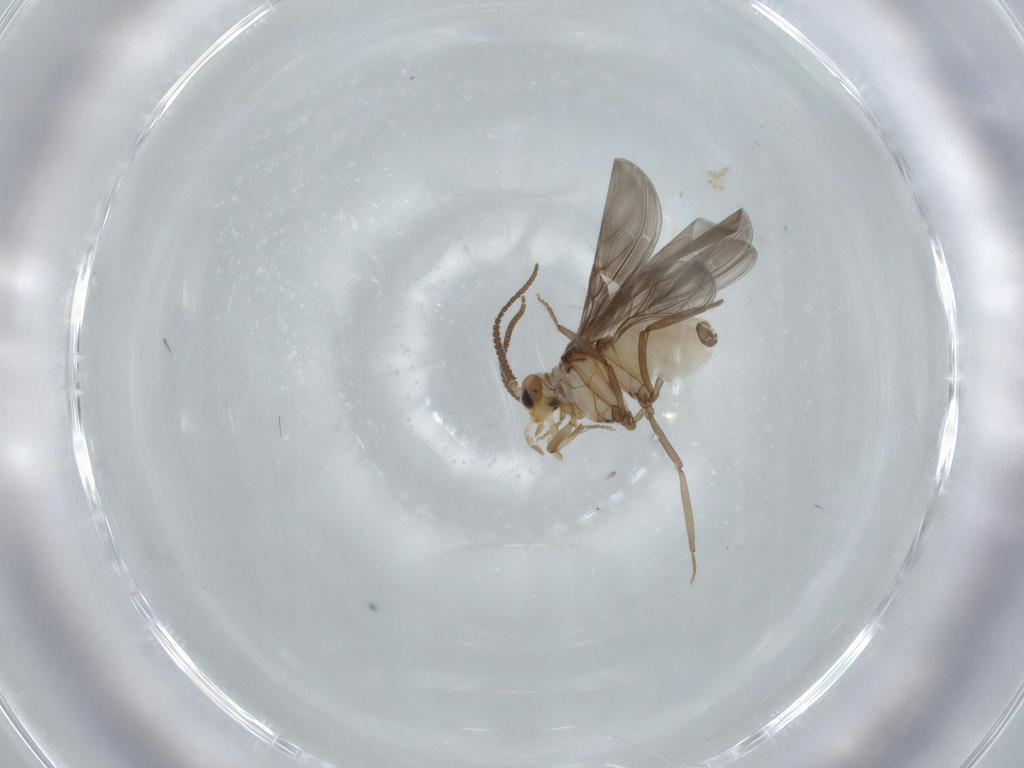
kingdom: Animalia
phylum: Arthropoda
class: Insecta
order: Neuroptera
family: Coniopterygidae
